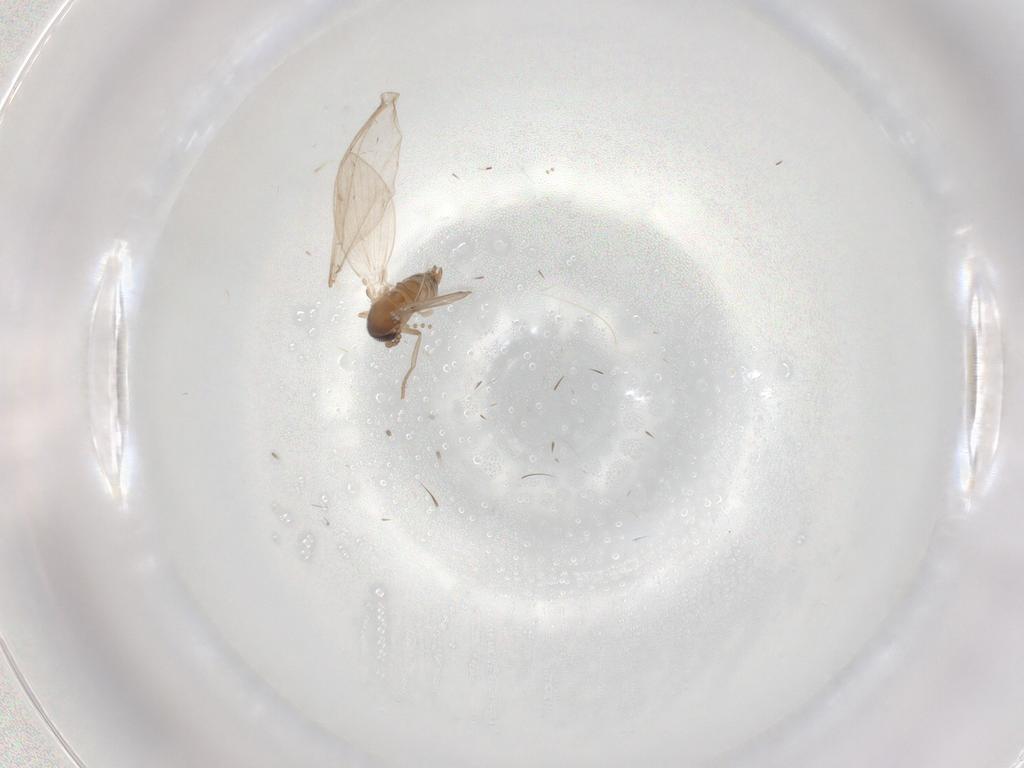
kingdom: Animalia
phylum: Arthropoda
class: Insecta
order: Diptera
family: Psychodidae
